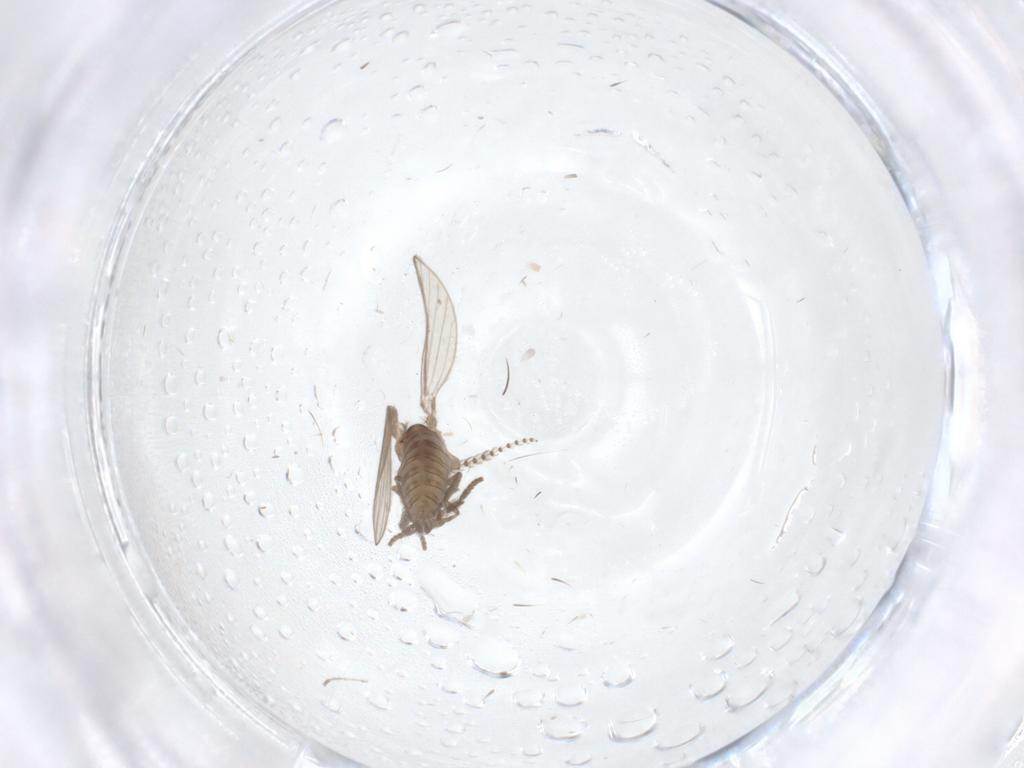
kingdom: Animalia
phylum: Arthropoda
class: Insecta
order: Diptera
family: Psychodidae
